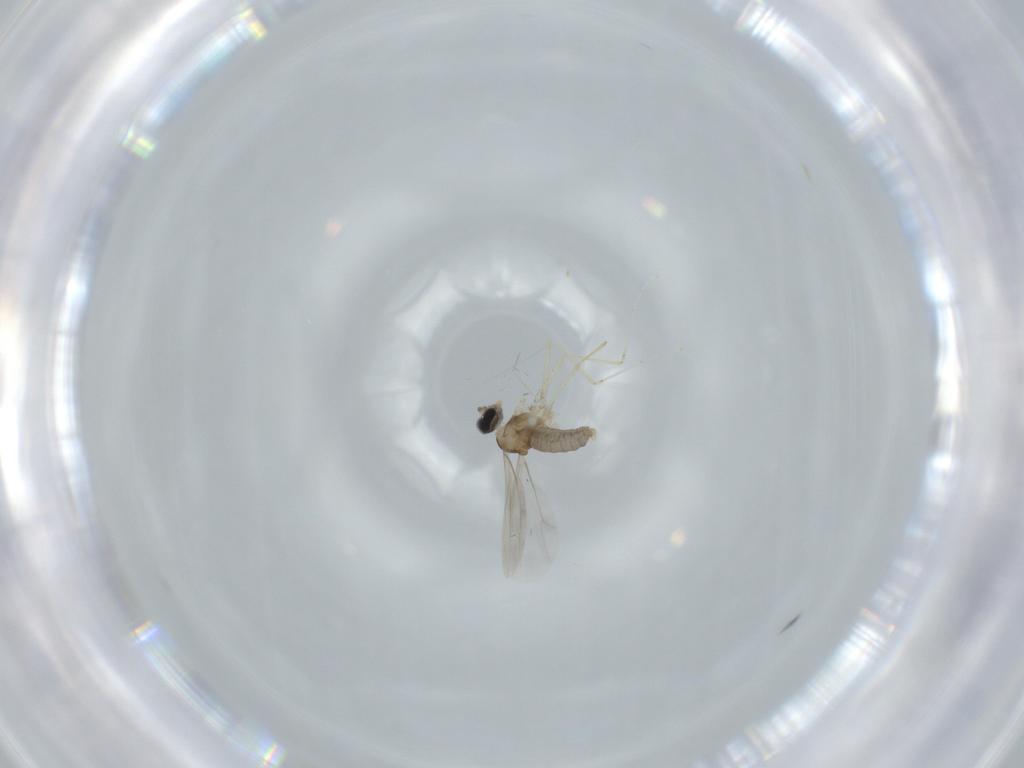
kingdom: Animalia
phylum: Arthropoda
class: Insecta
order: Diptera
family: Cecidomyiidae
